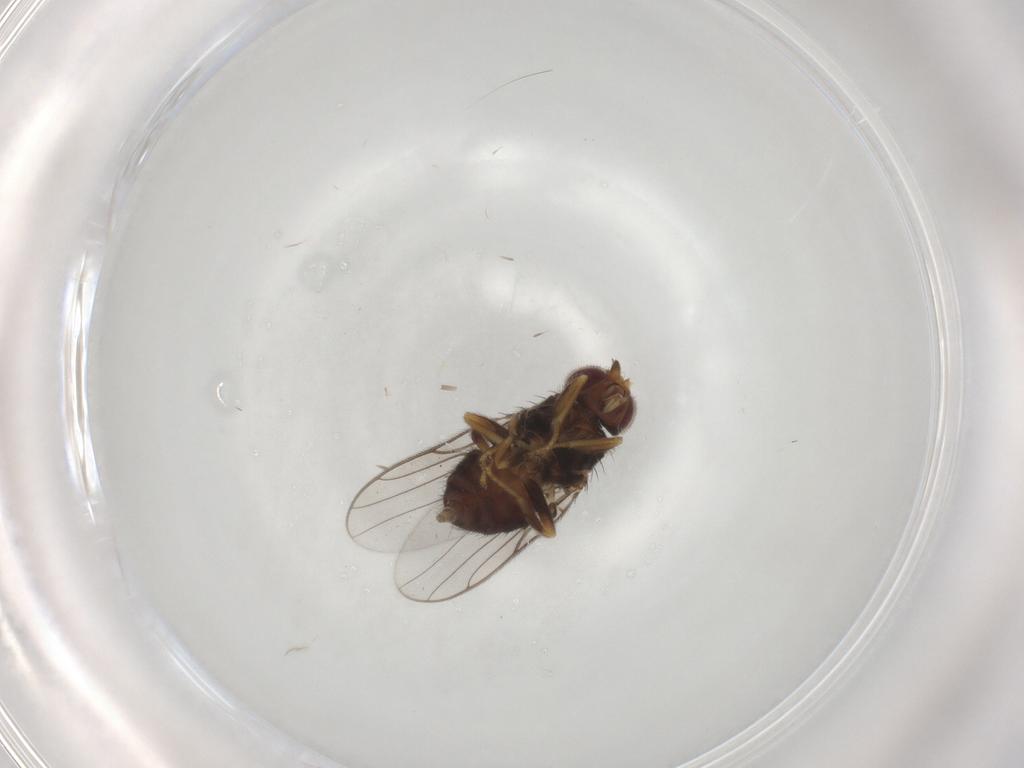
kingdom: Animalia
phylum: Arthropoda
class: Insecta
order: Diptera
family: Chloropidae
